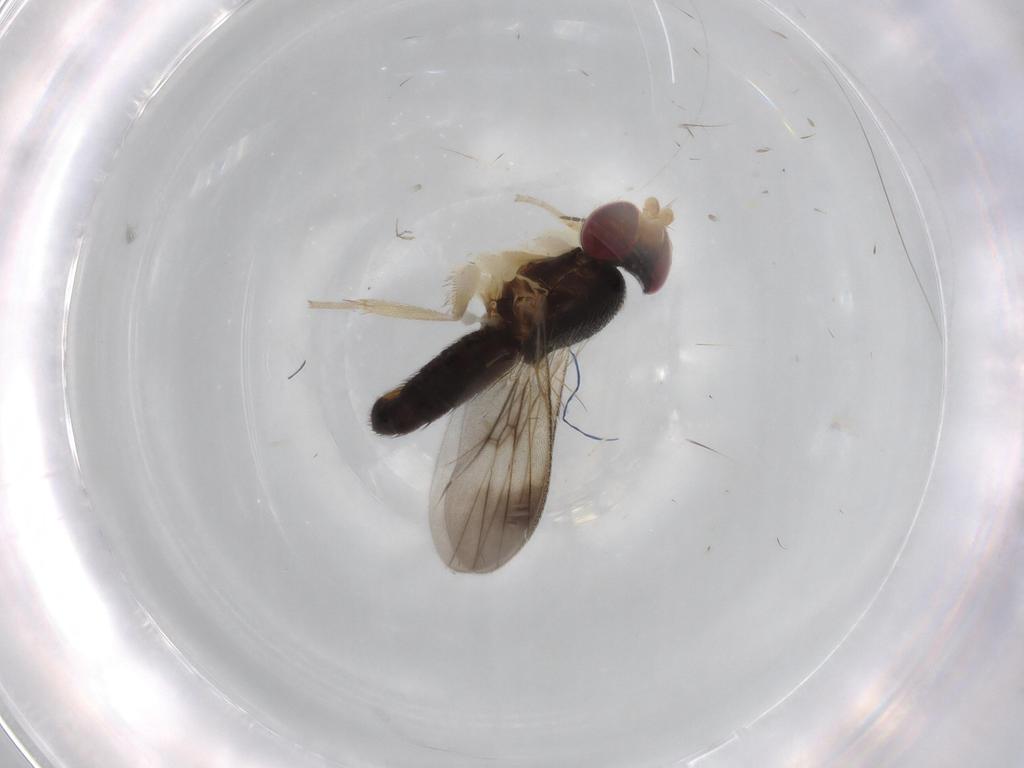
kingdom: Animalia
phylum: Arthropoda
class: Insecta
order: Diptera
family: Clusiidae
